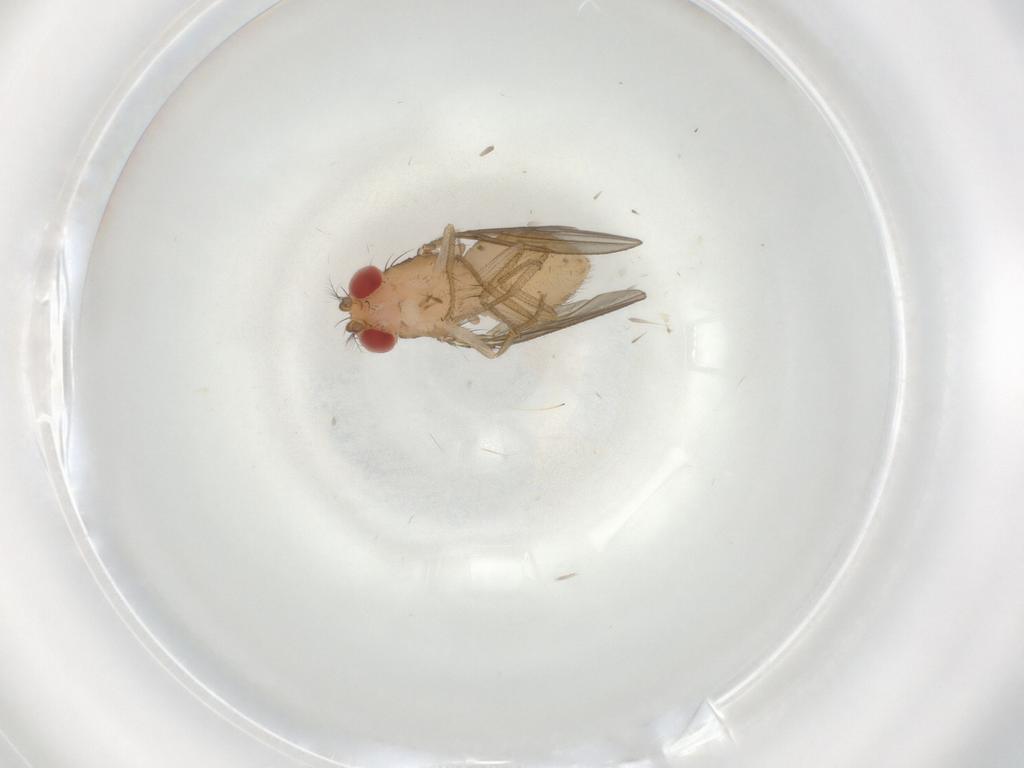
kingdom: Animalia
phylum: Arthropoda
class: Insecta
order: Diptera
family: Drosophilidae
